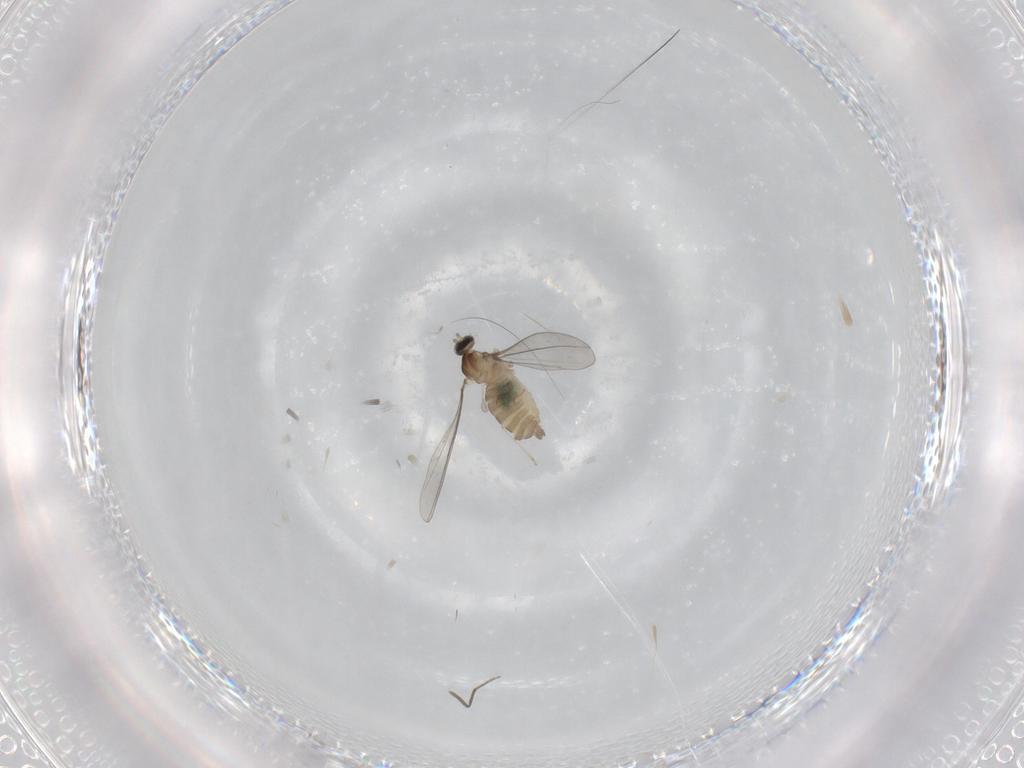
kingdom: Animalia
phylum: Arthropoda
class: Insecta
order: Diptera
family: Cecidomyiidae
